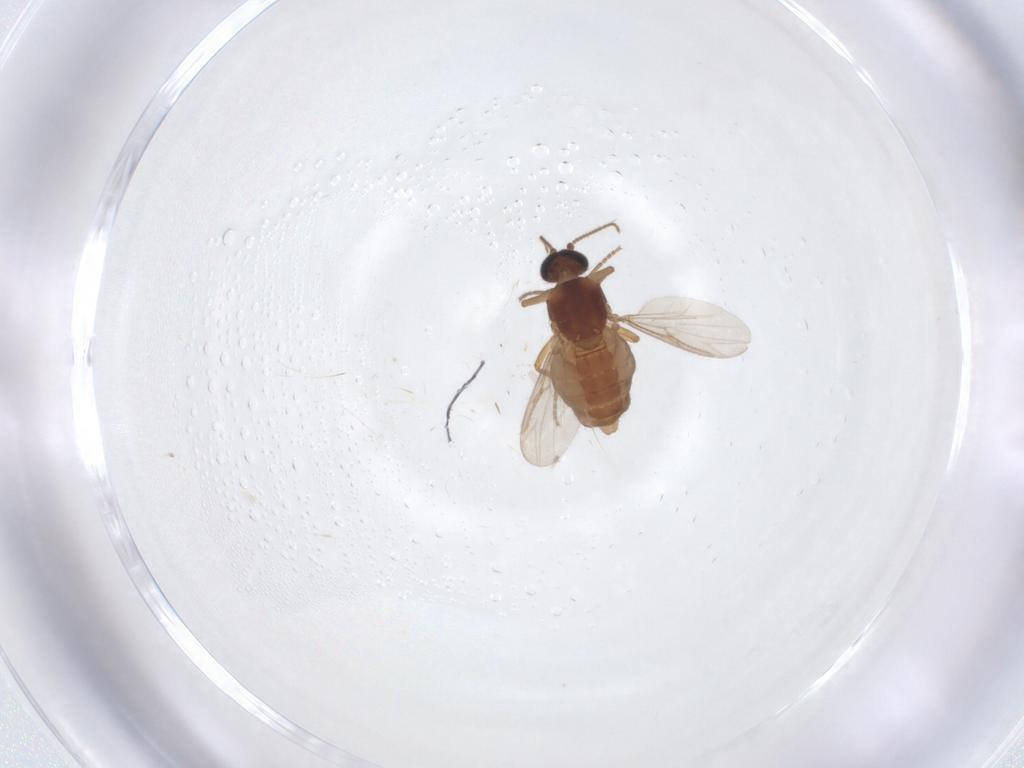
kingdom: Animalia
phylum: Arthropoda
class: Insecta
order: Diptera
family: Ceratopogonidae
